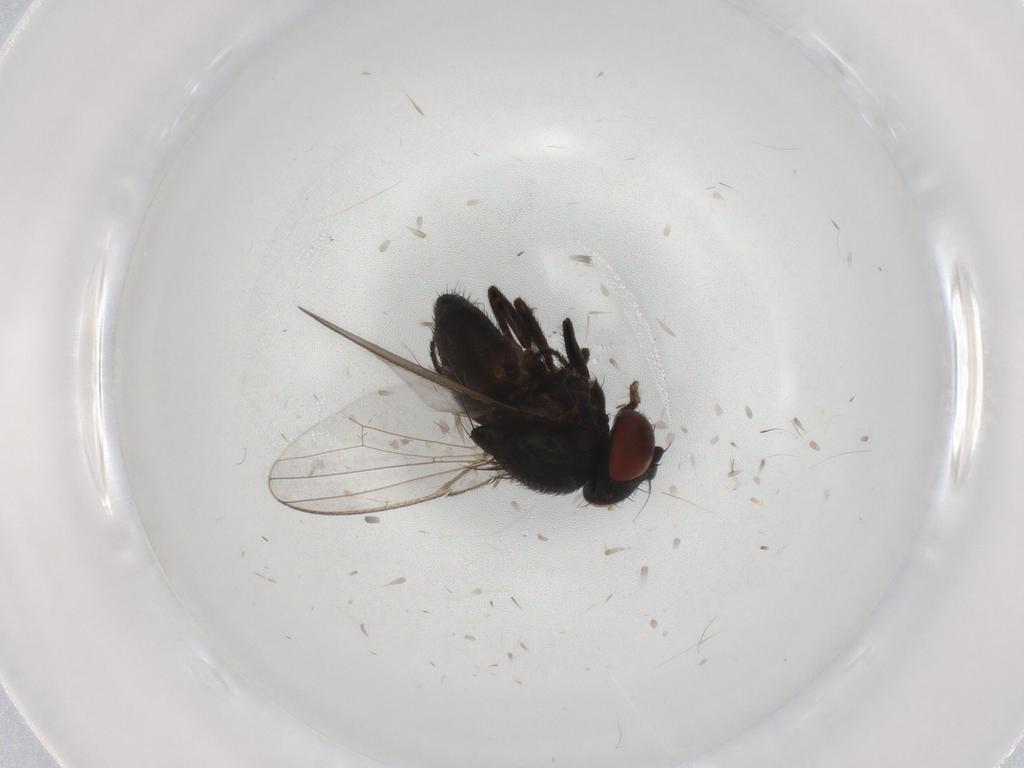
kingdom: Animalia
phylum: Arthropoda
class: Insecta
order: Diptera
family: Milichiidae
